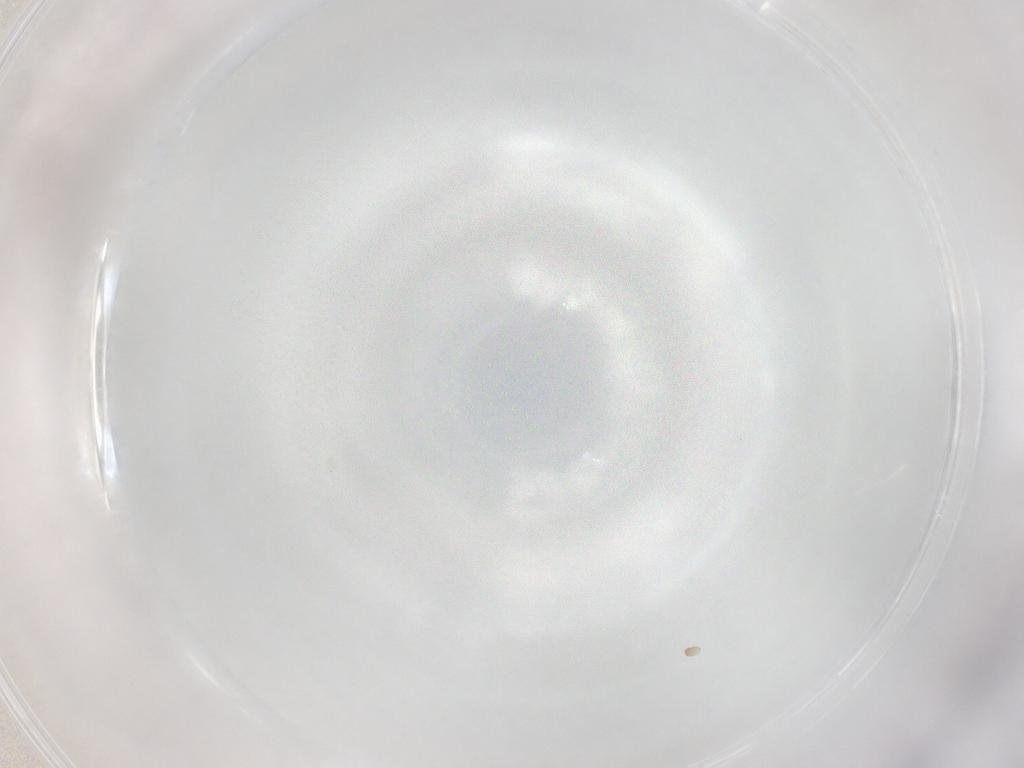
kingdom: Animalia
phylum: Arthropoda
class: Insecta
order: Diptera
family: Cecidomyiidae
